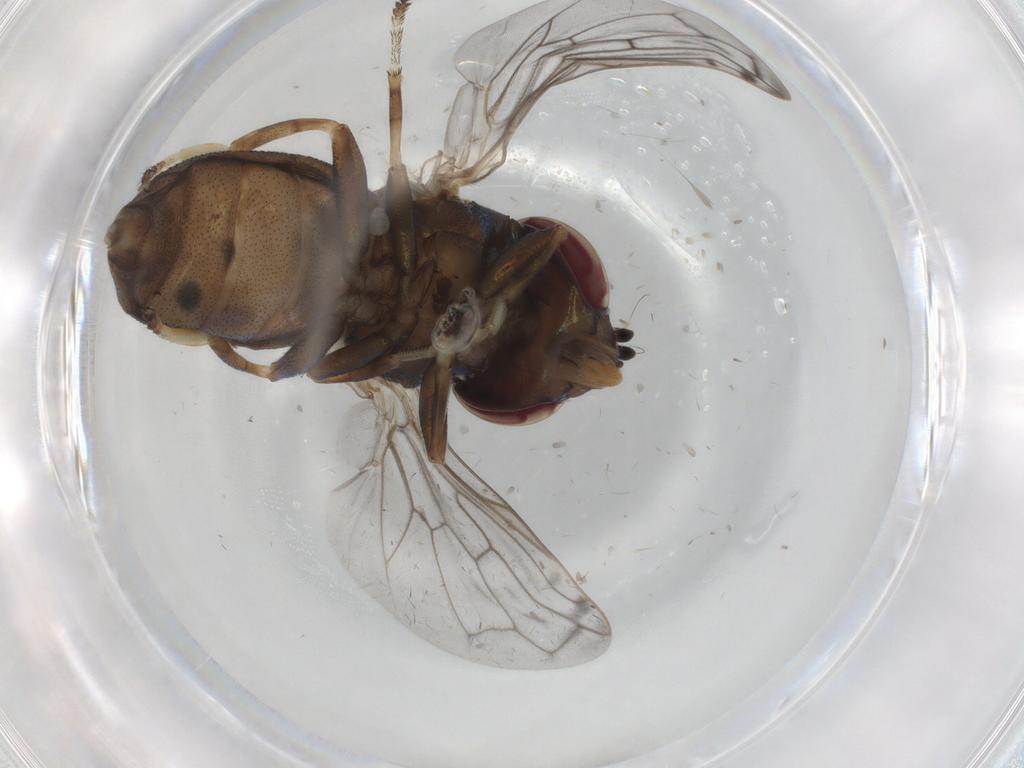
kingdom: Animalia
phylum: Arthropoda
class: Insecta
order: Diptera
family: Syrphidae
